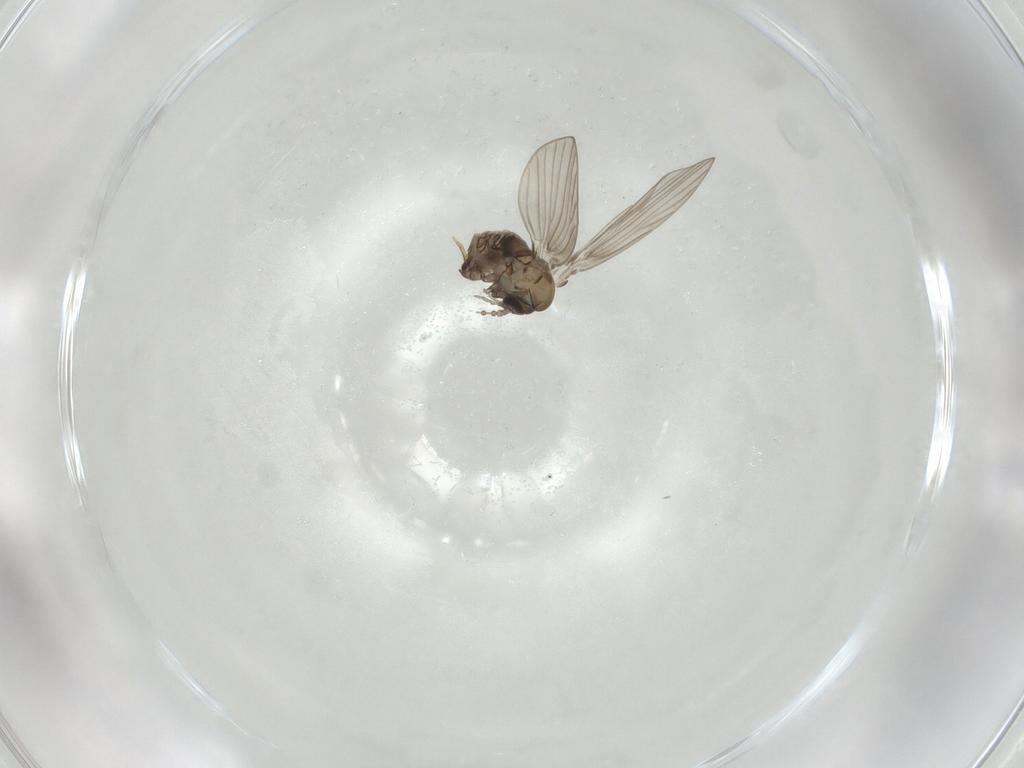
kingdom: Animalia
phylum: Arthropoda
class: Insecta
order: Diptera
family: Psychodidae
